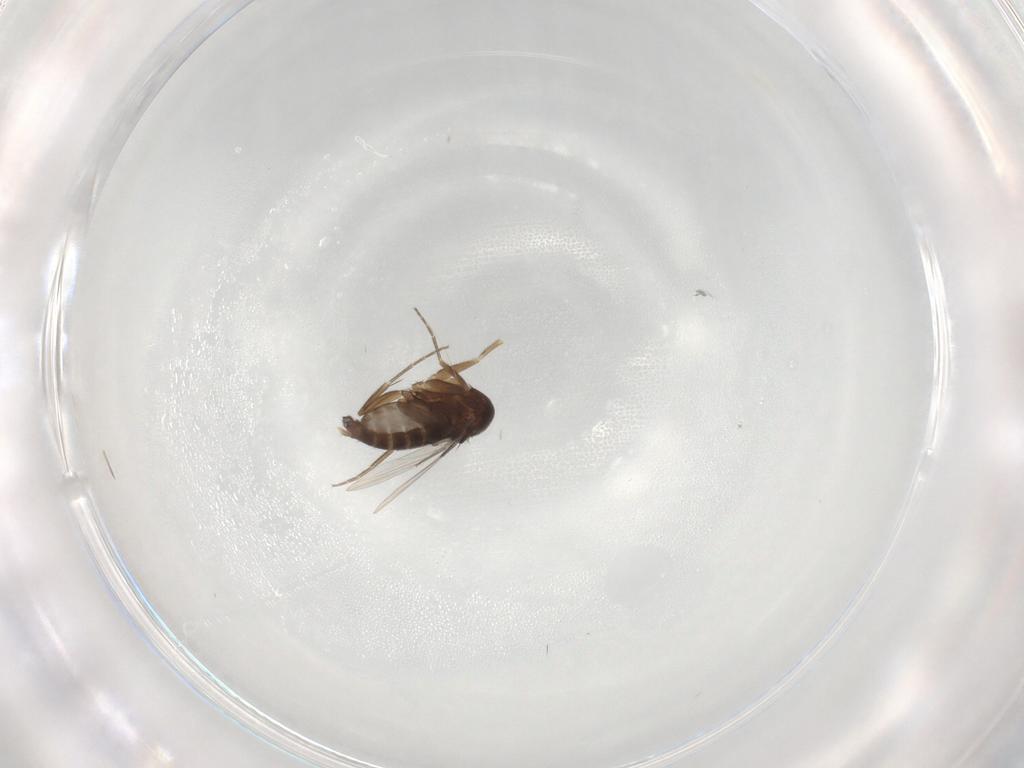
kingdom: Animalia
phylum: Arthropoda
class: Insecta
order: Diptera
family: Phoridae
